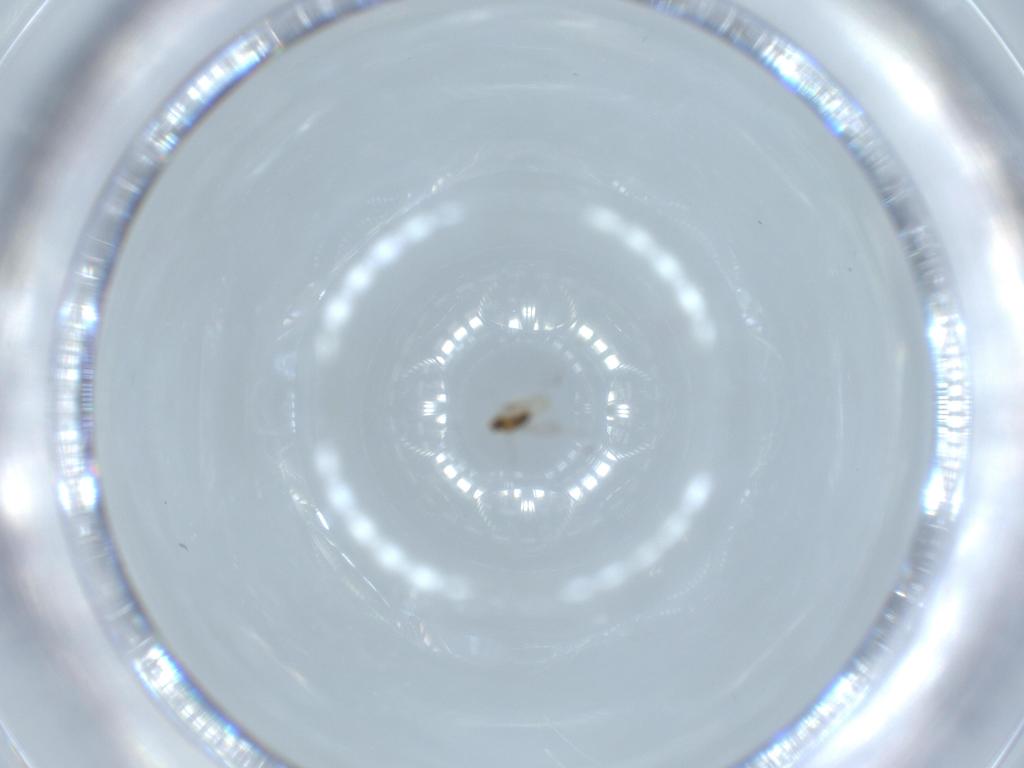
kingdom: Animalia
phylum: Arthropoda
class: Insecta
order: Hymenoptera
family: Aphelinidae
